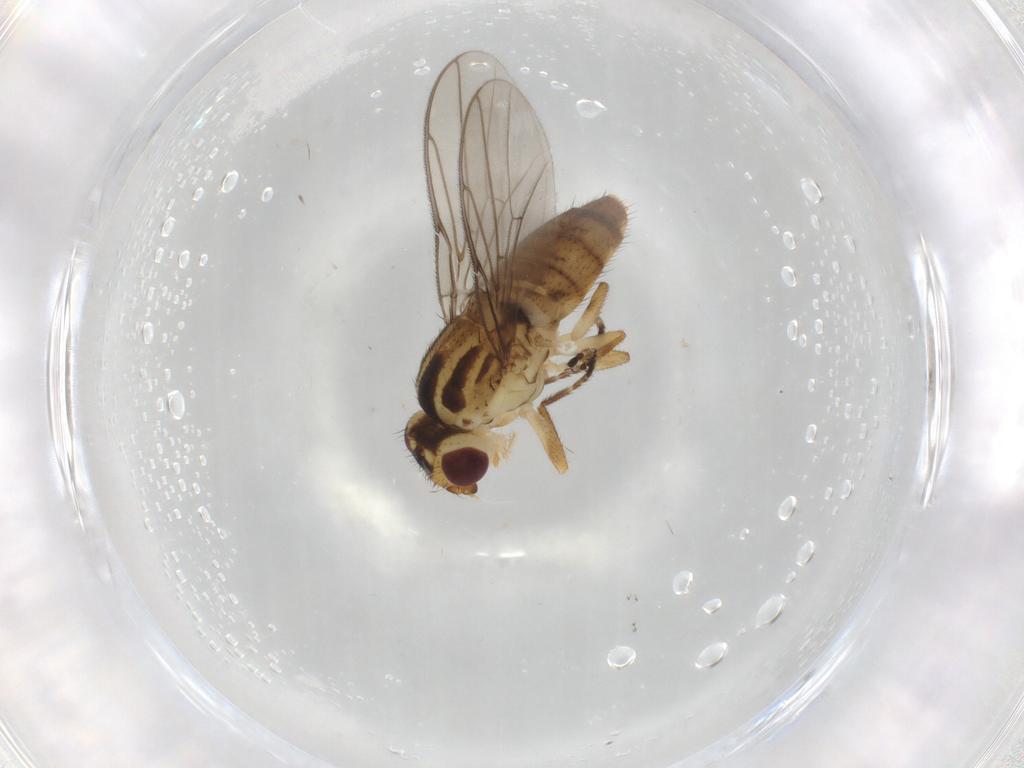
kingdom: Animalia
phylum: Arthropoda
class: Insecta
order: Diptera
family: Chloropidae
